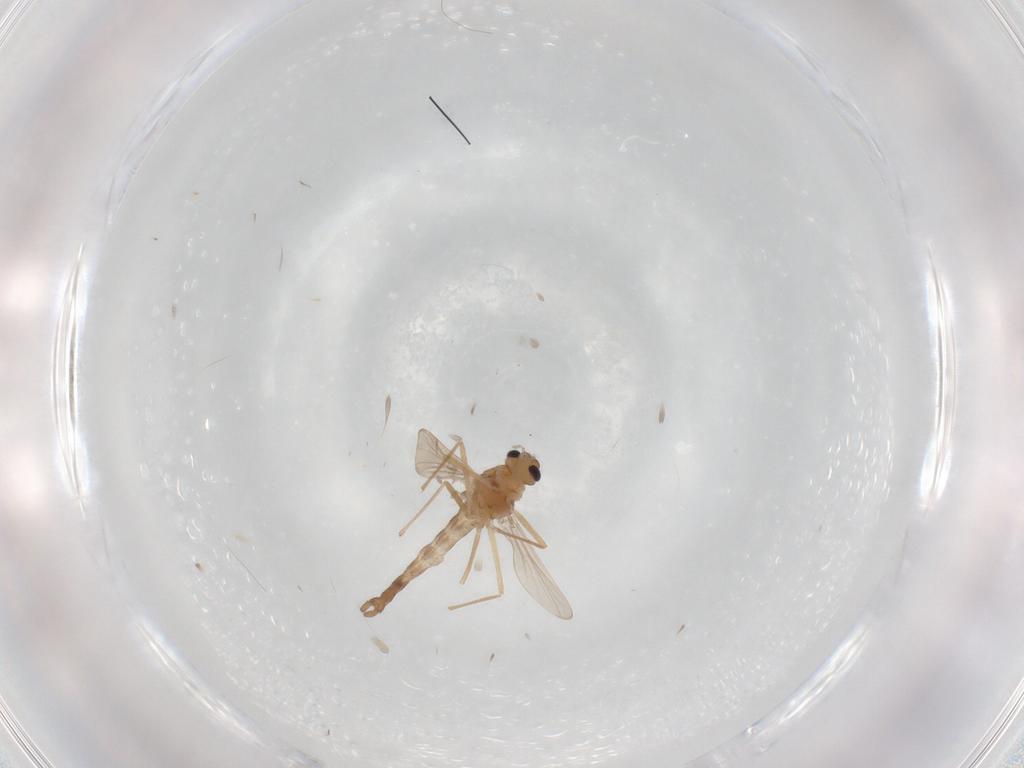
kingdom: Animalia
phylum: Arthropoda
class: Insecta
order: Diptera
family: Chironomidae
